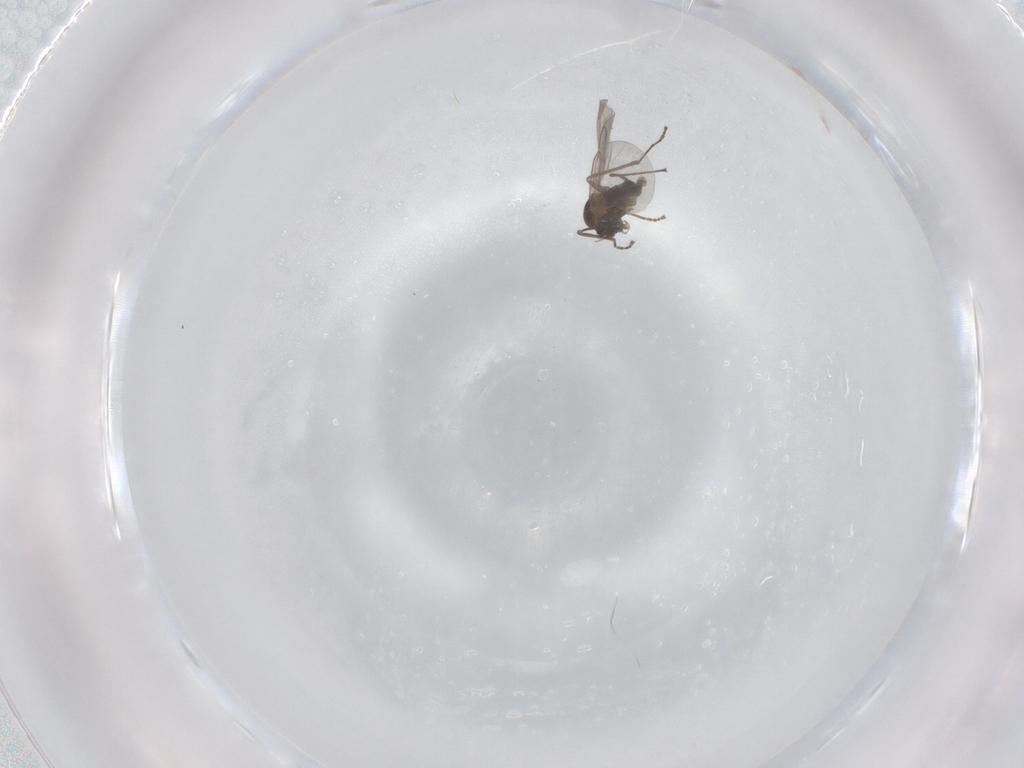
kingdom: Animalia
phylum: Arthropoda
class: Insecta
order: Diptera
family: Cecidomyiidae
